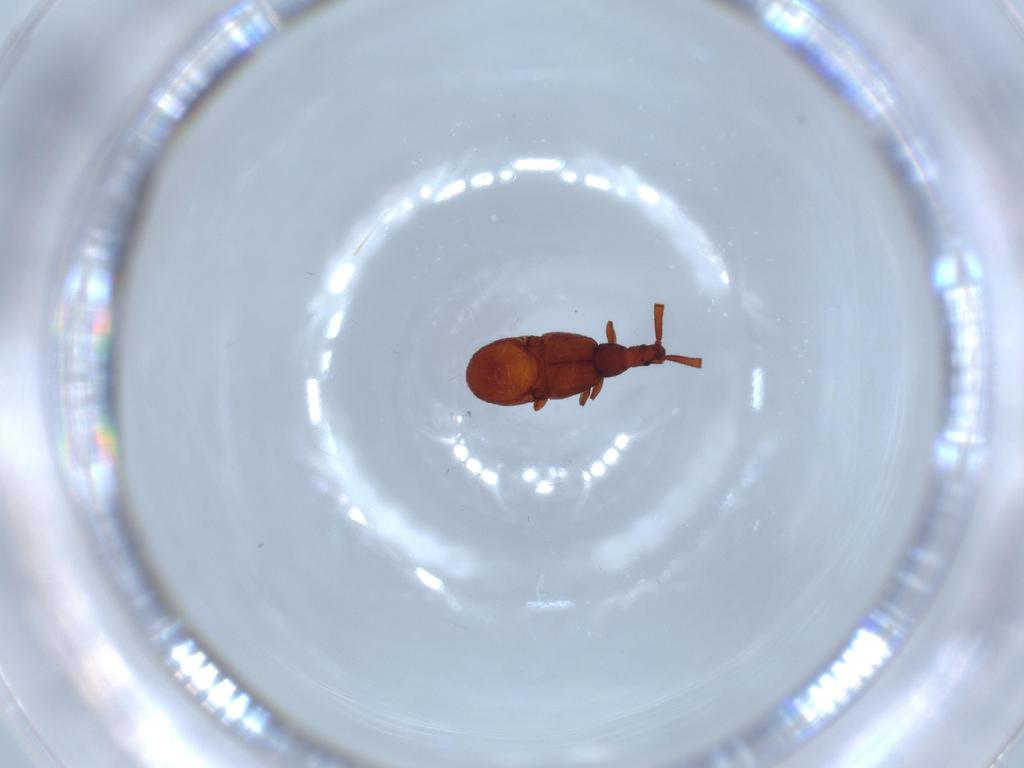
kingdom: Animalia
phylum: Arthropoda
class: Insecta
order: Coleoptera
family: Staphylinidae
